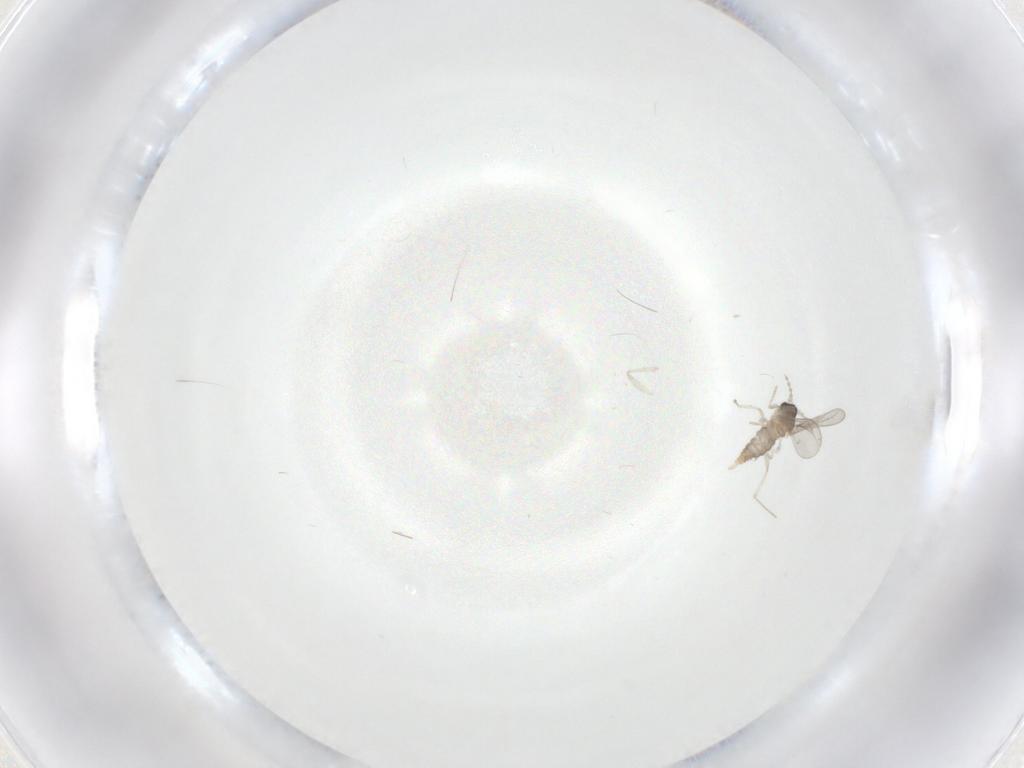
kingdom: Animalia
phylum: Arthropoda
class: Insecta
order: Diptera
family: Cecidomyiidae
